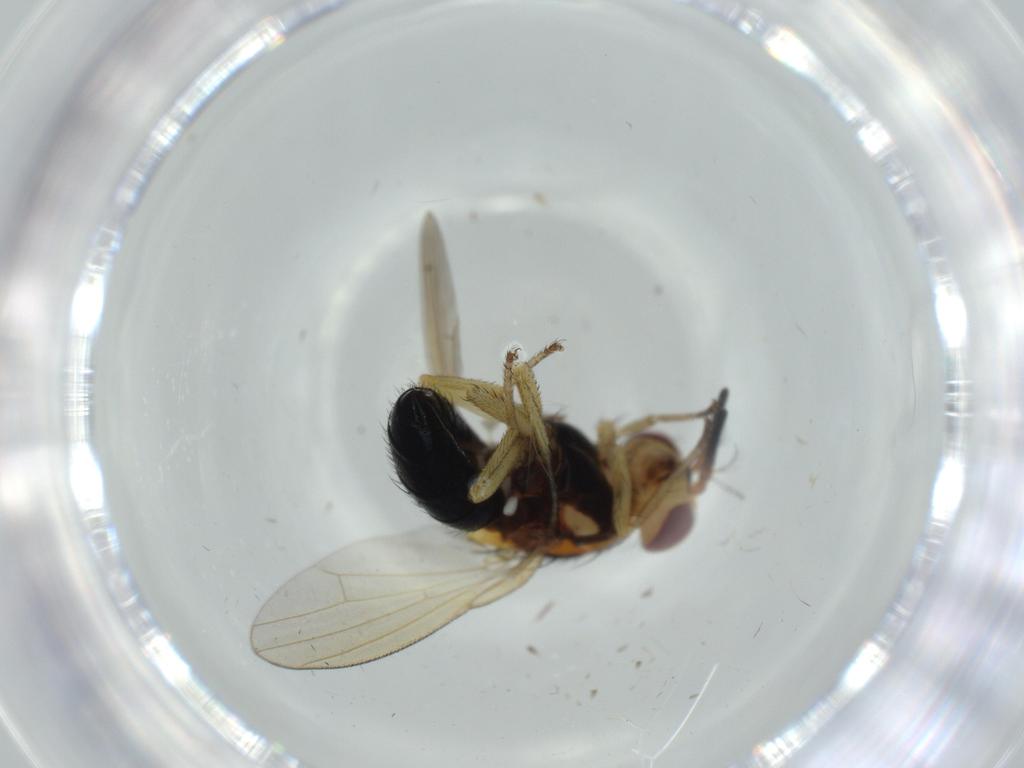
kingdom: Animalia
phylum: Arthropoda
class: Insecta
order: Diptera
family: Lauxaniidae
